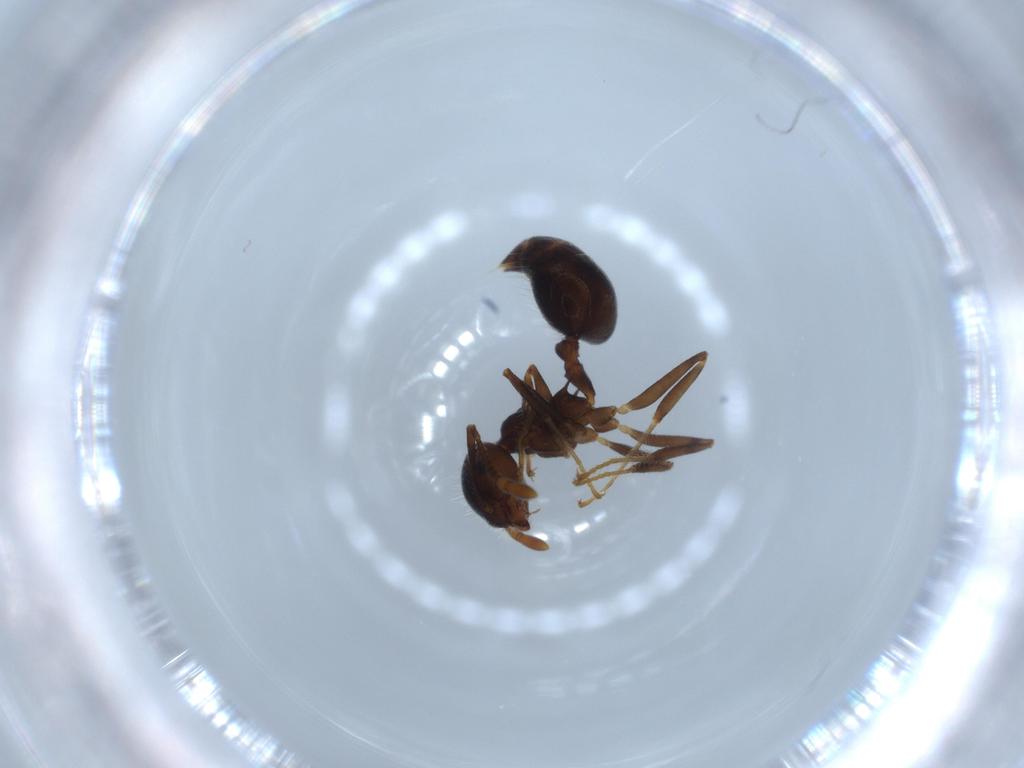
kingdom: Animalia
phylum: Arthropoda
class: Insecta
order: Hymenoptera
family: Formicidae
